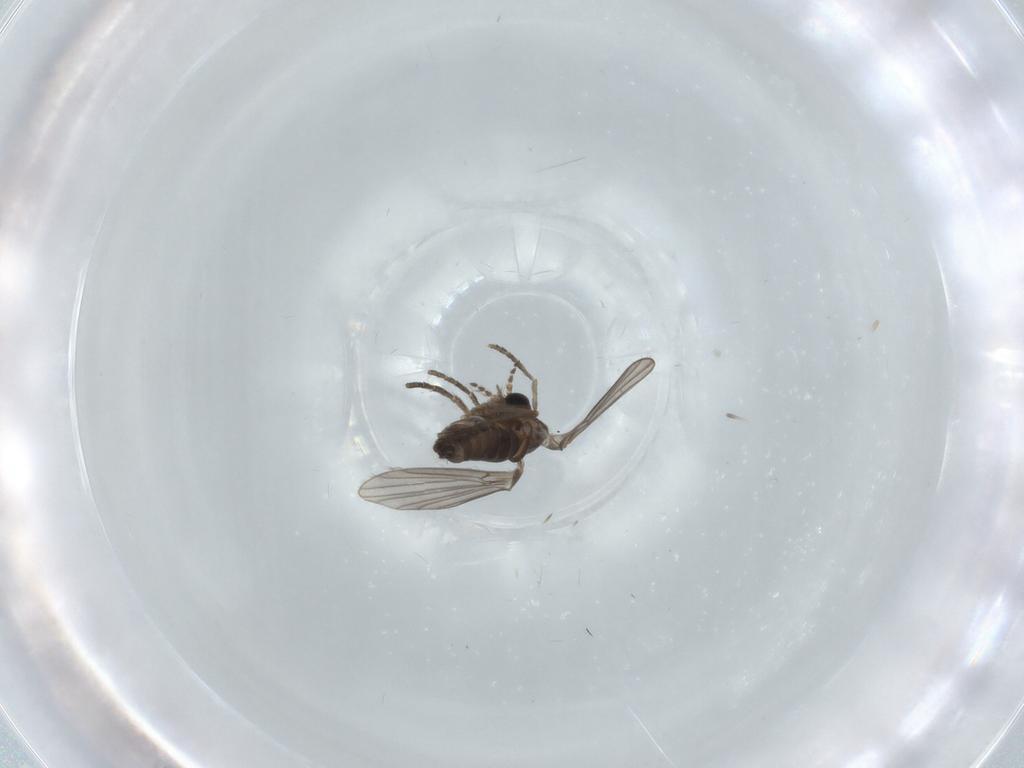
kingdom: Animalia
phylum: Arthropoda
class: Insecta
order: Diptera
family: Cecidomyiidae
